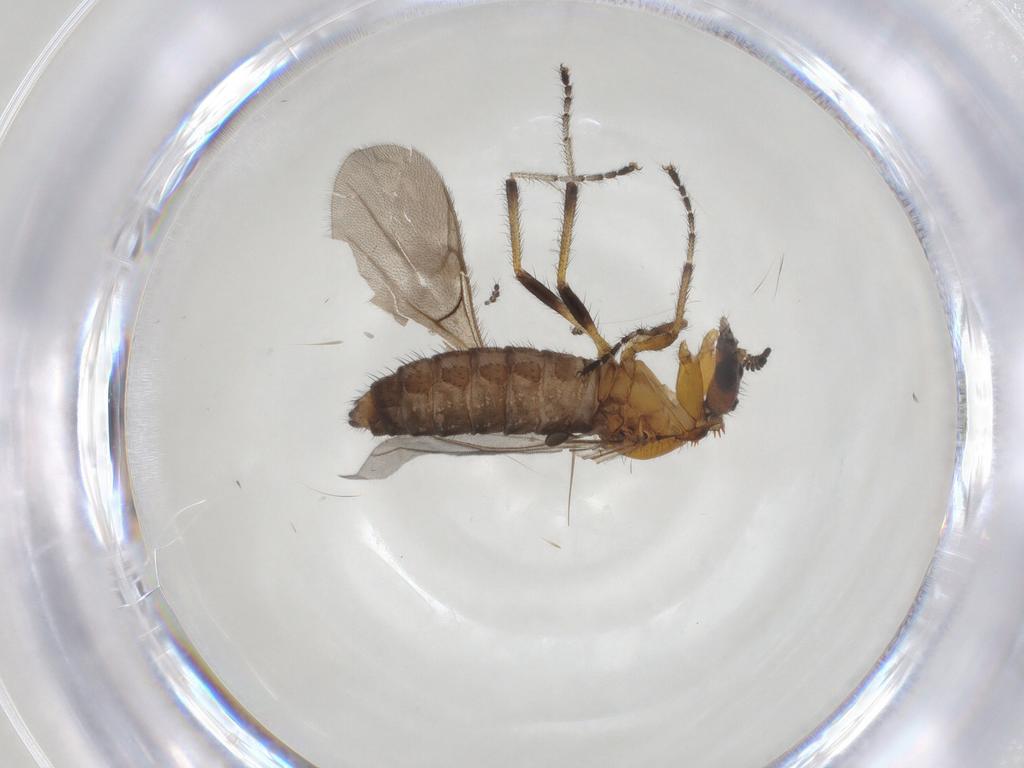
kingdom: Animalia
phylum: Arthropoda
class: Insecta
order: Diptera
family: Bibionidae
